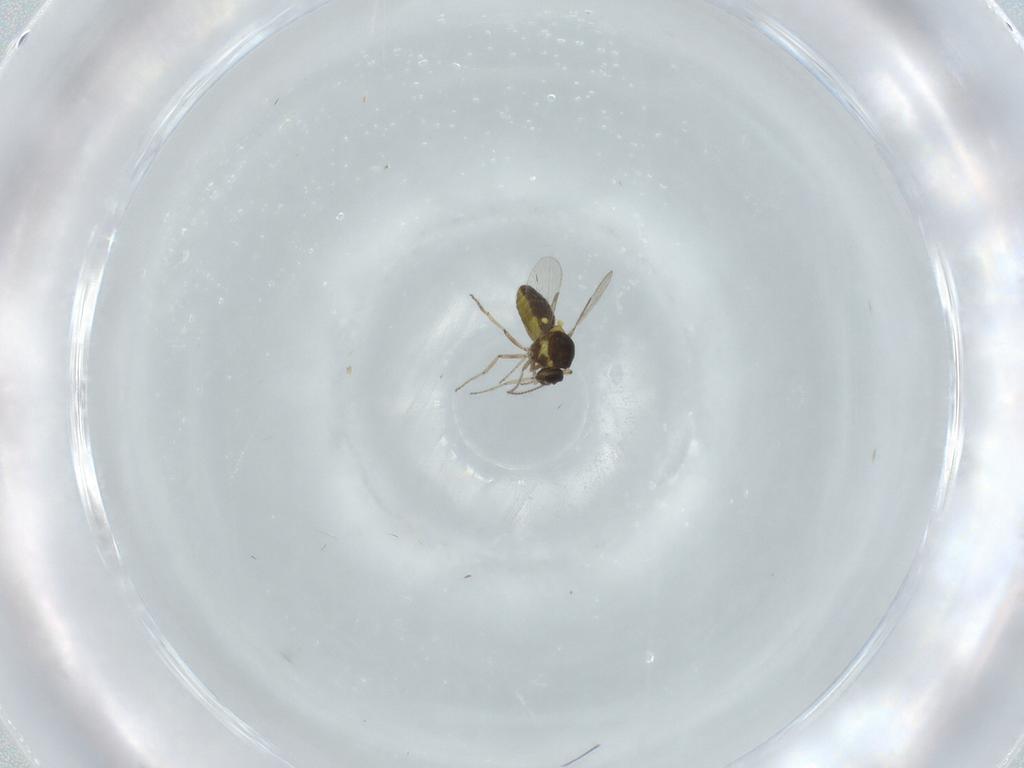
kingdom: Animalia
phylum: Arthropoda
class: Insecta
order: Diptera
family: Ceratopogonidae
